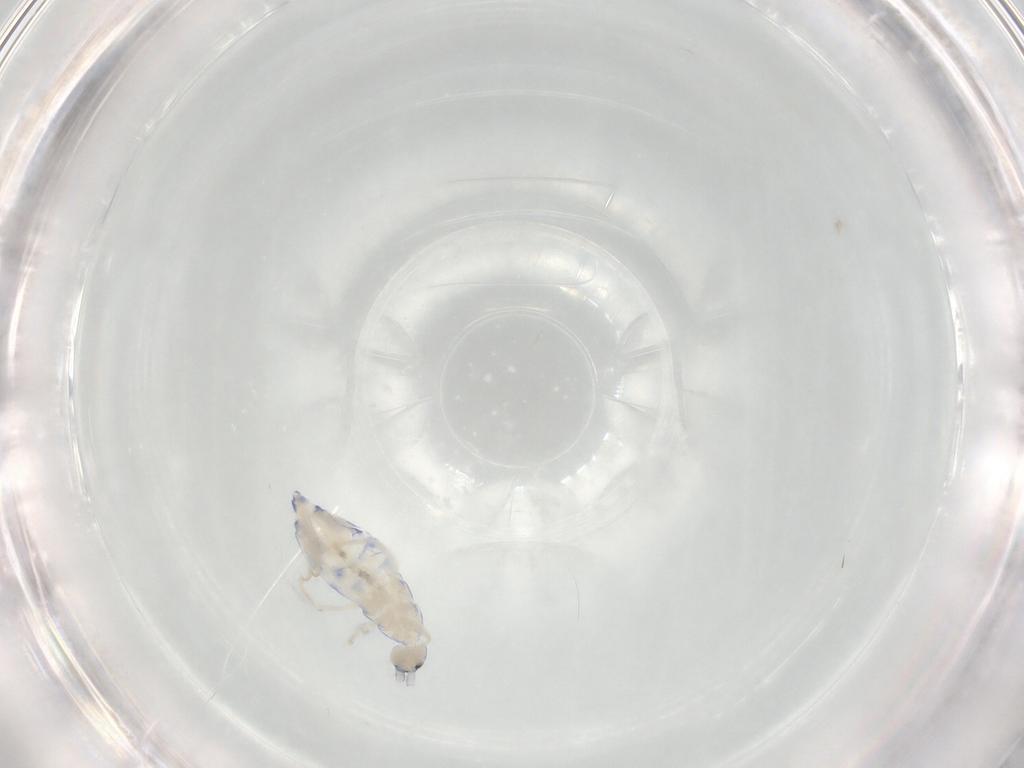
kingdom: Animalia
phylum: Arthropoda
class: Collembola
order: Entomobryomorpha
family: Entomobryidae
